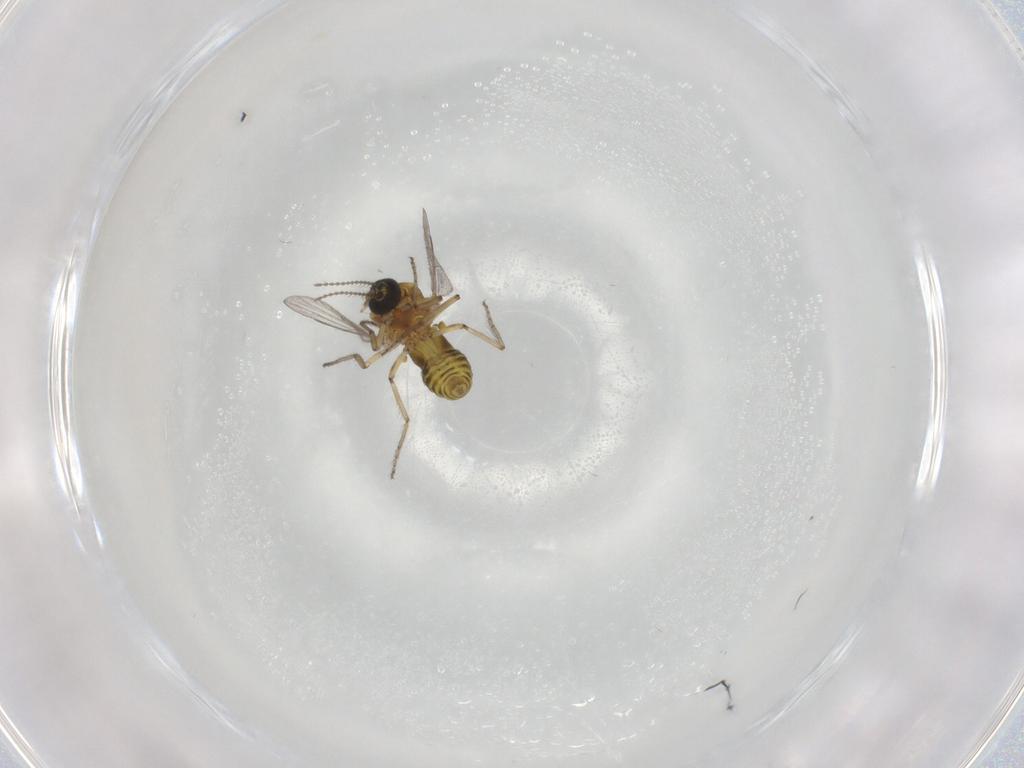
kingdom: Animalia
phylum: Arthropoda
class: Insecta
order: Diptera
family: Ceratopogonidae
